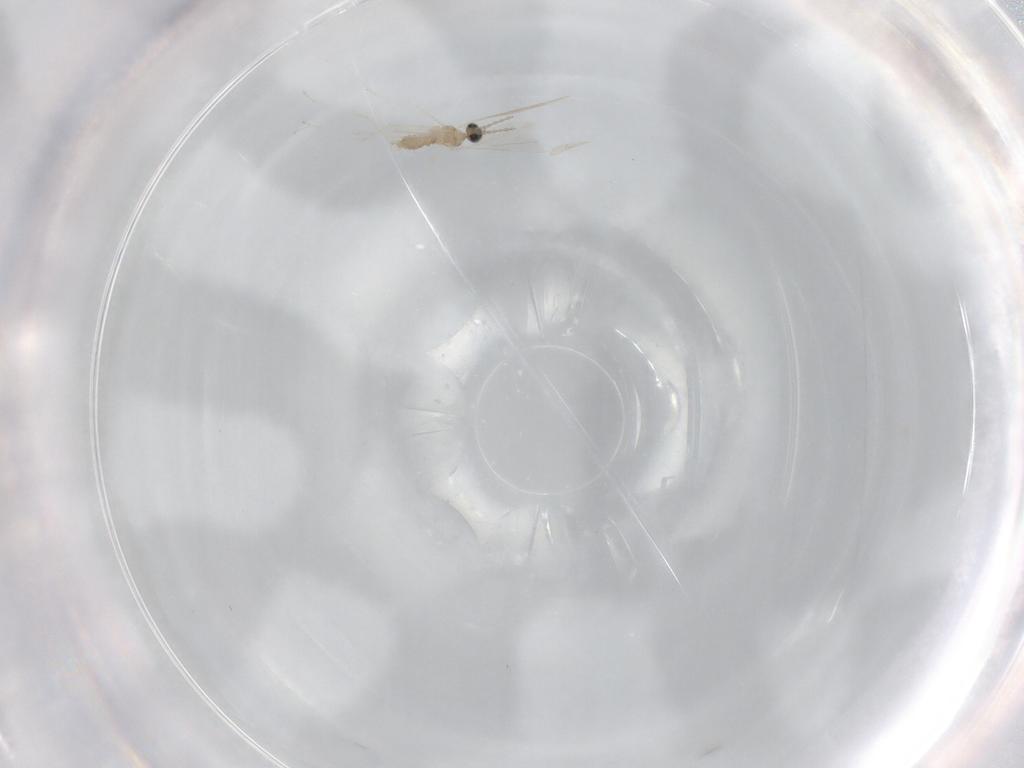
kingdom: Animalia
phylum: Arthropoda
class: Insecta
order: Diptera
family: Cecidomyiidae
